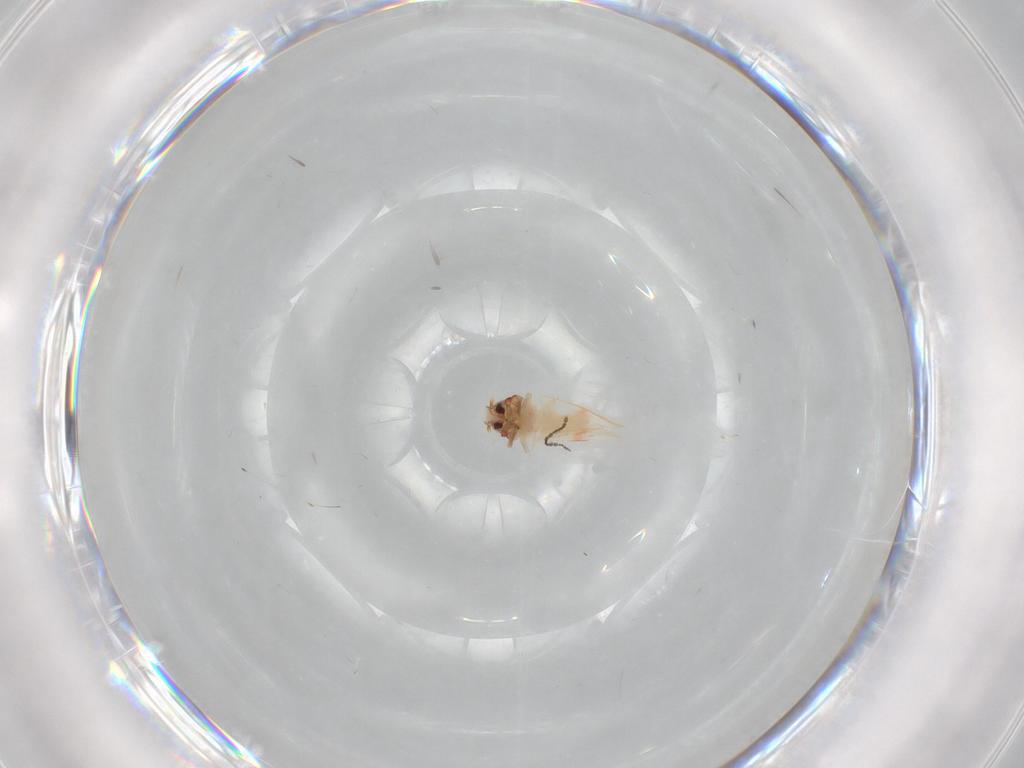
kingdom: Animalia
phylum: Arthropoda
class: Insecta
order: Hemiptera
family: Aleyrodidae
